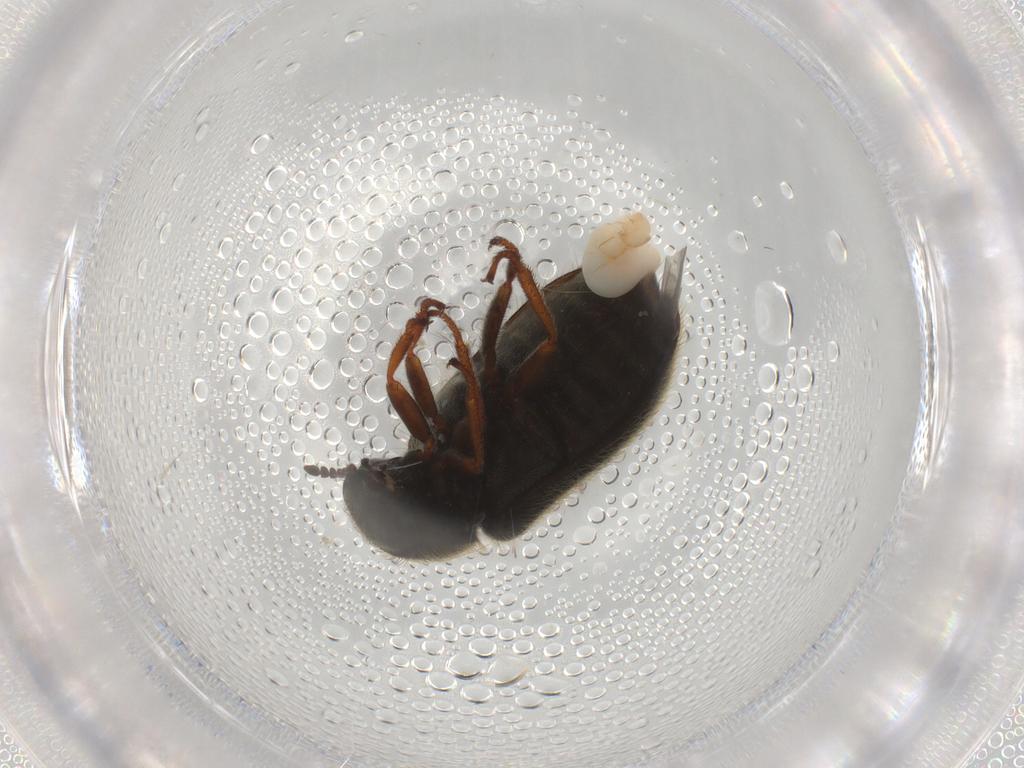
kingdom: Animalia
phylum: Arthropoda
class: Insecta
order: Coleoptera
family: Melyridae
